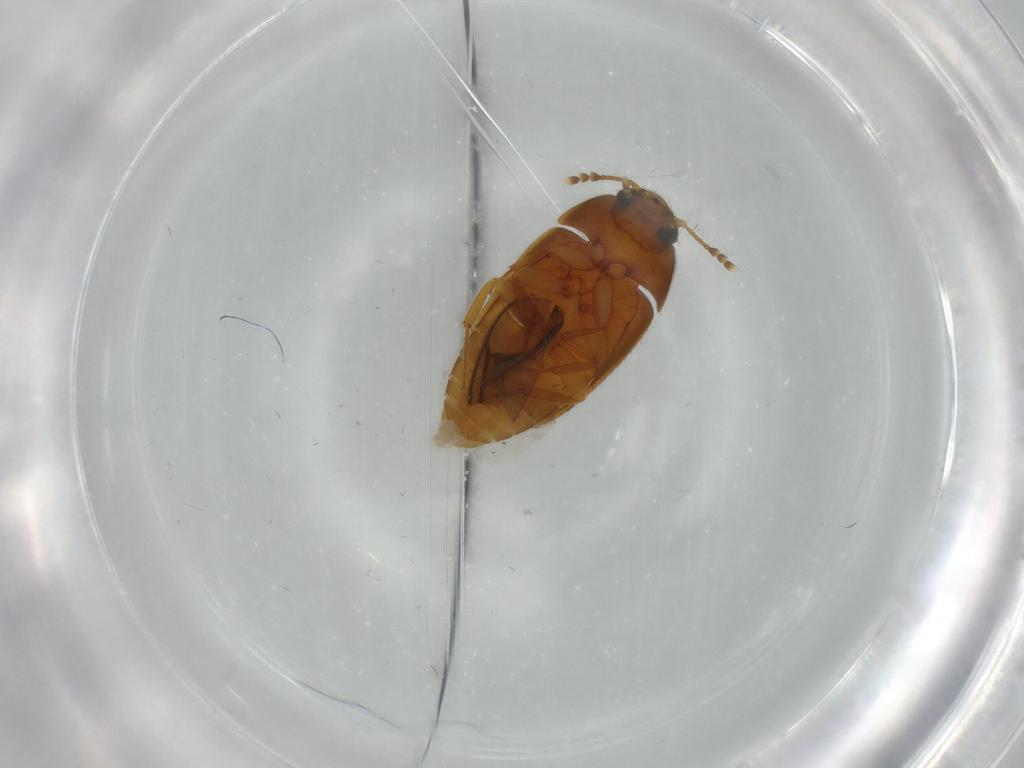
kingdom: Animalia
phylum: Arthropoda
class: Insecta
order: Coleoptera
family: Mycetophagidae
